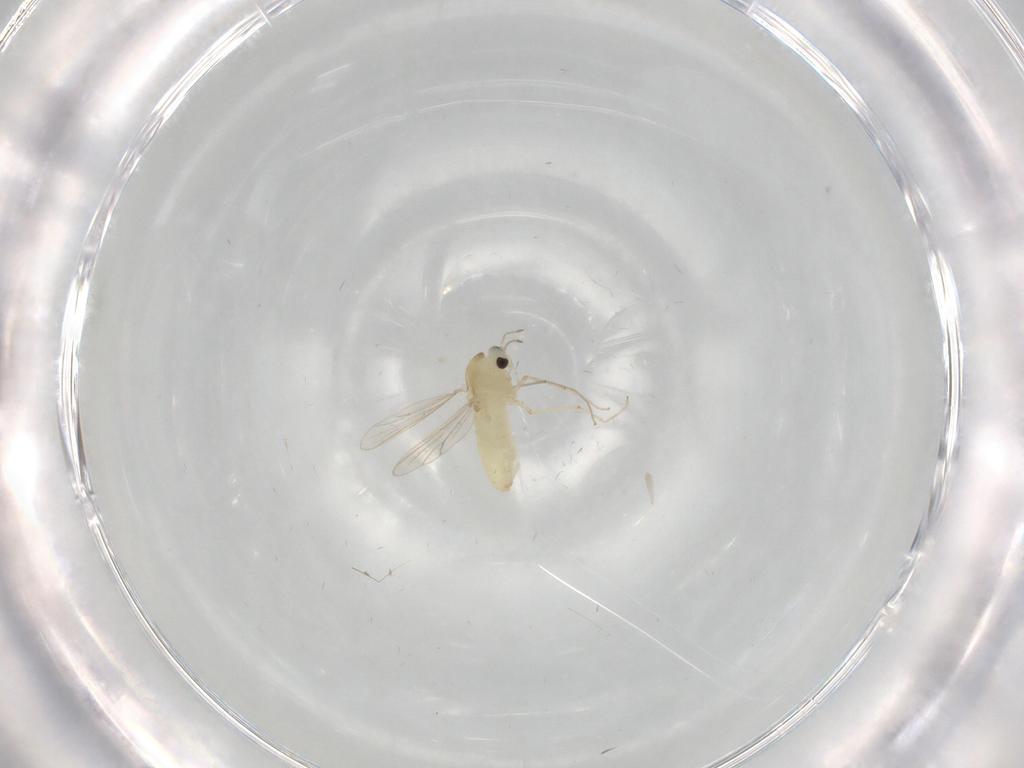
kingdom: Animalia
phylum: Arthropoda
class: Insecta
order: Diptera
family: Chironomidae
